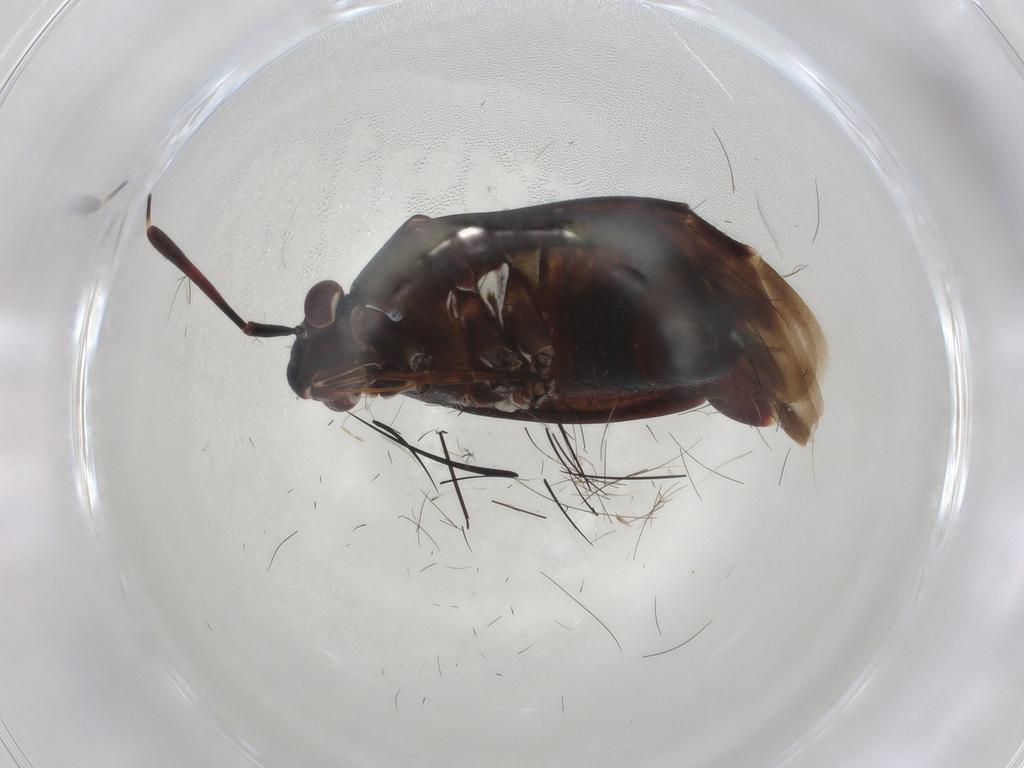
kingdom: Animalia
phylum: Arthropoda
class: Insecta
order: Hemiptera
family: Miridae
